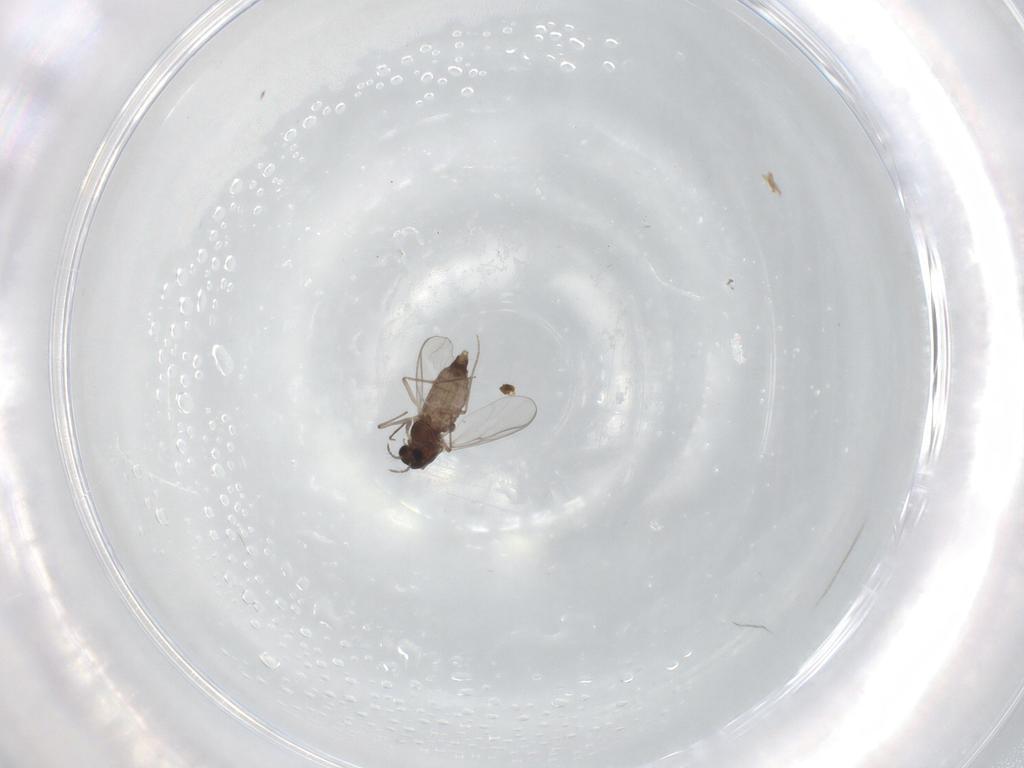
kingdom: Animalia
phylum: Arthropoda
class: Insecta
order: Diptera
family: Chironomidae
